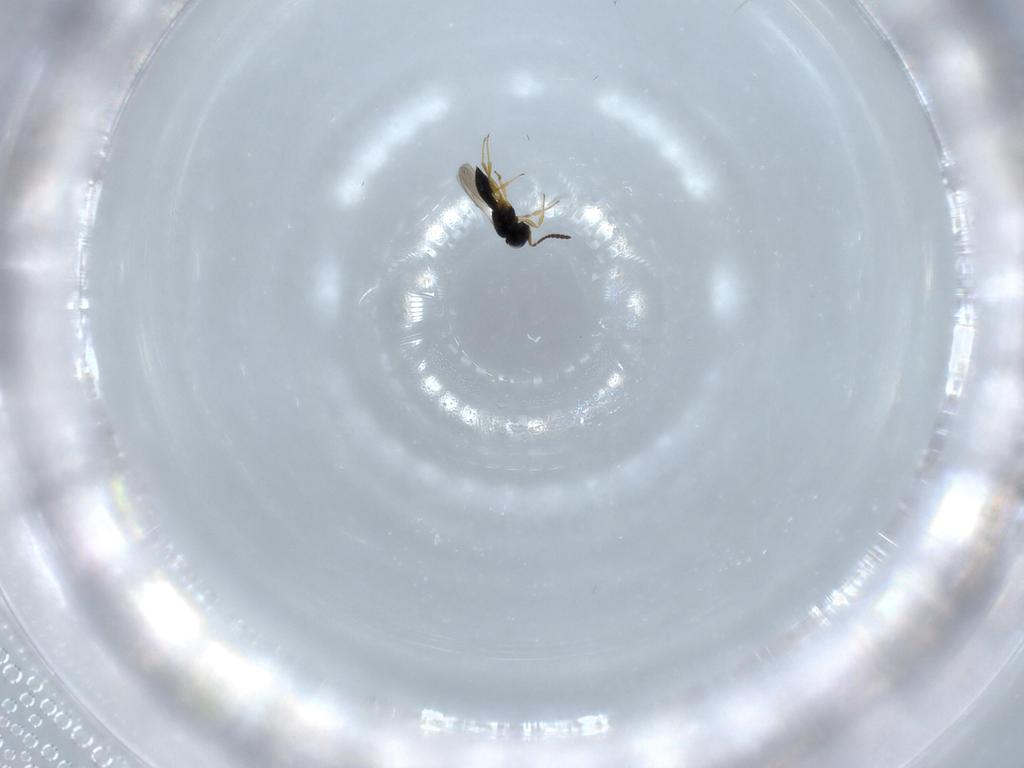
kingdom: Animalia
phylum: Arthropoda
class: Insecta
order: Hymenoptera
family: Scelionidae
